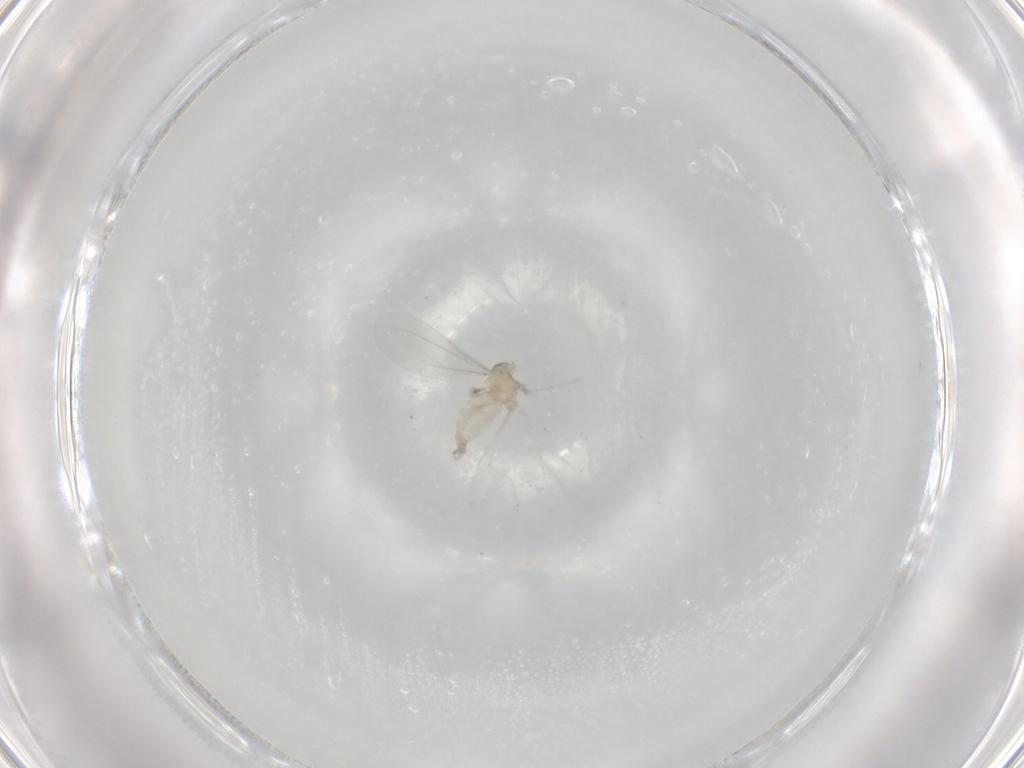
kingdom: Animalia
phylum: Arthropoda
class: Insecta
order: Diptera
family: Cecidomyiidae
